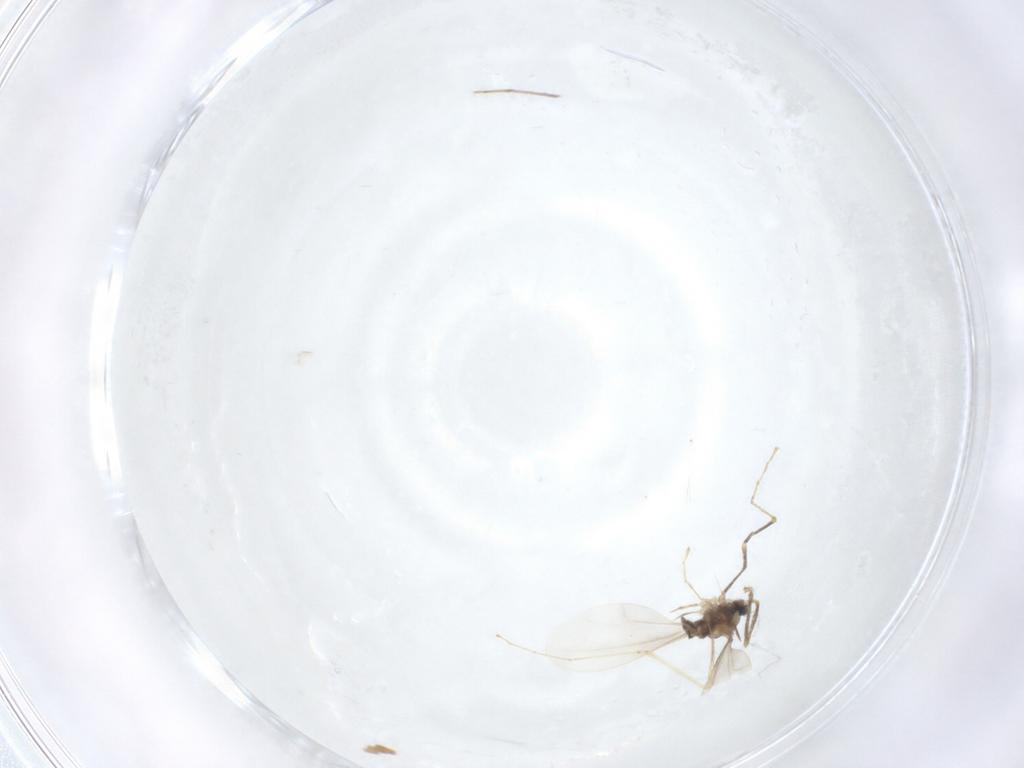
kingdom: Animalia
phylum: Arthropoda
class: Insecta
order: Diptera
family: Cecidomyiidae
